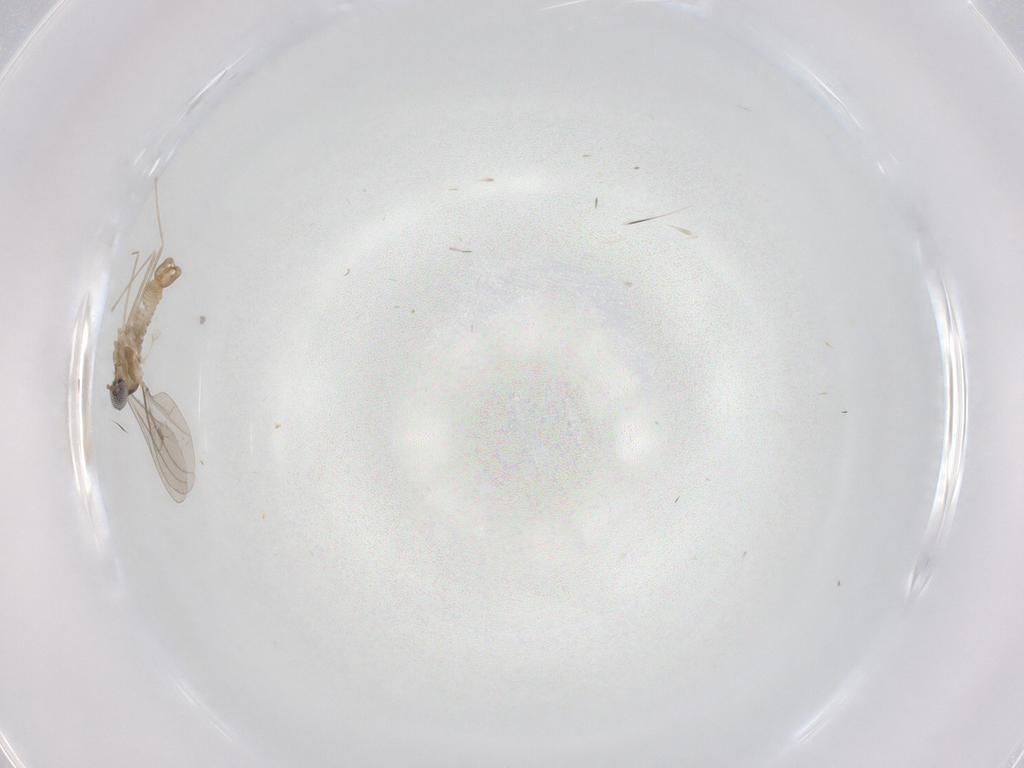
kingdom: Animalia
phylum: Arthropoda
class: Insecta
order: Diptera
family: Cecidomyiidae
